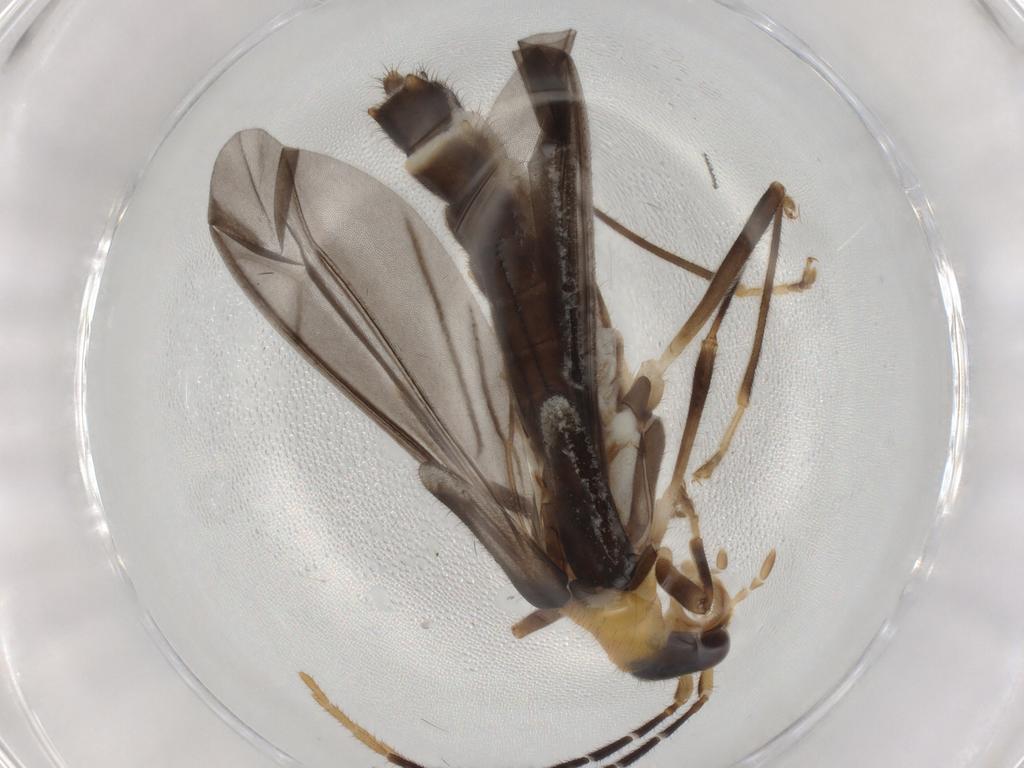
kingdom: Animalia
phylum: Arthropoda
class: Insecta
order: Coleoptera
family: Cantharidae
